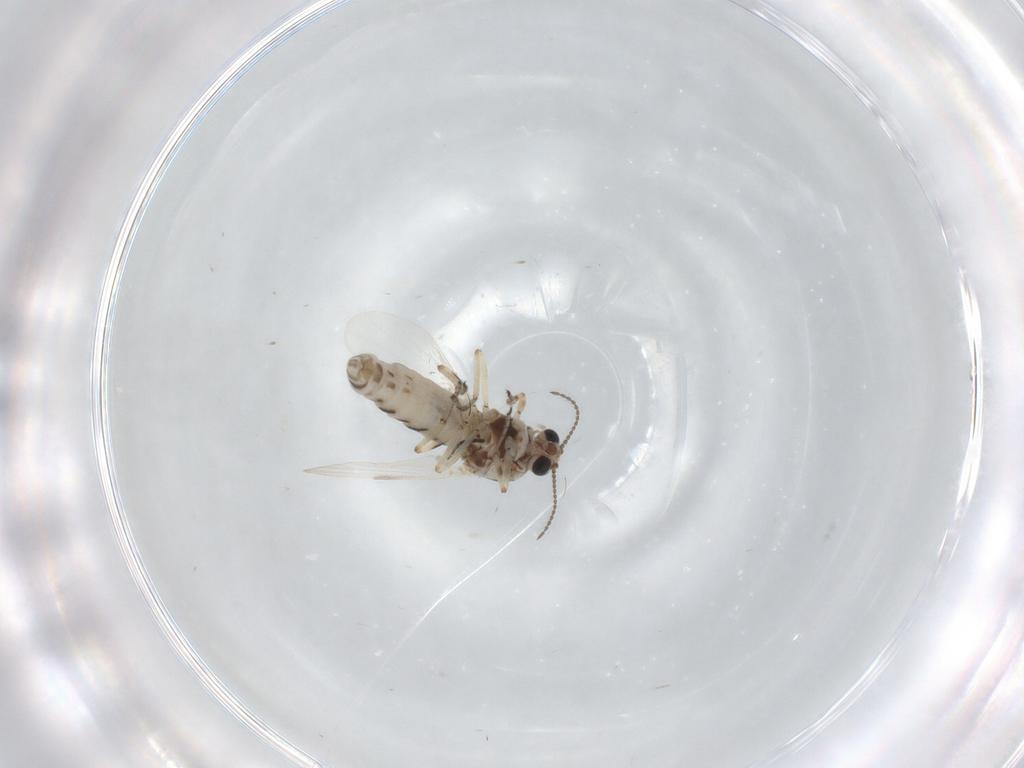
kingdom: Animalia
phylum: Arthropoda
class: Insecta
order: Diptera
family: Ceratopogonidae
